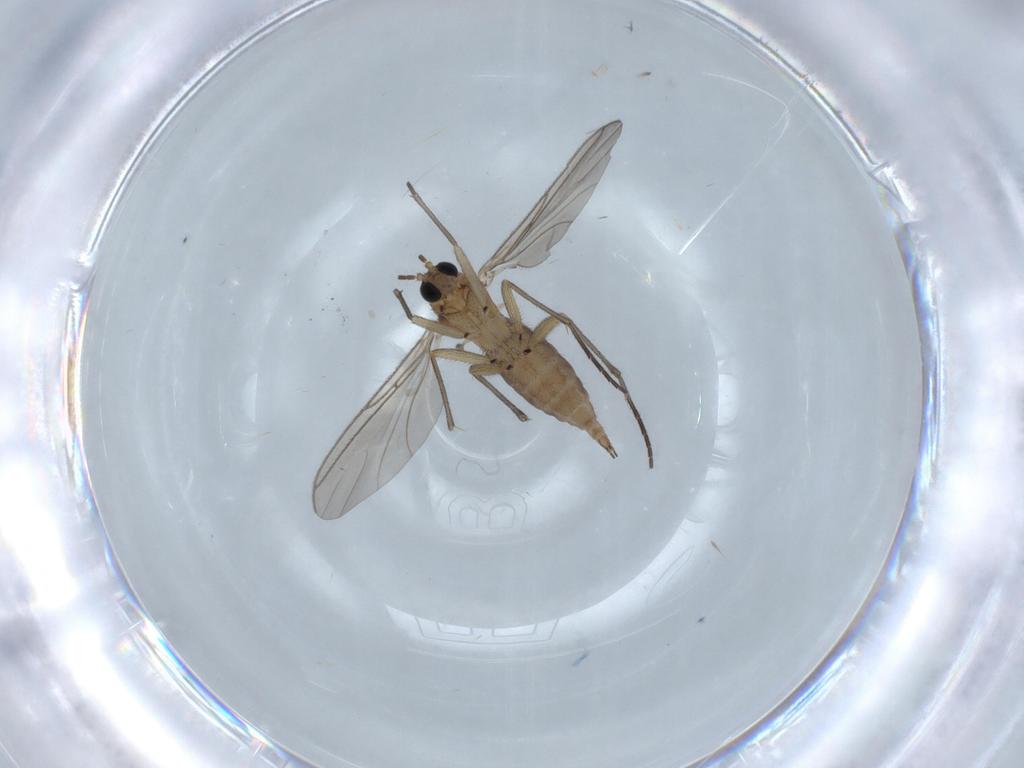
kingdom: Animalia
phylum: Arthropoda
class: Insecta
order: Diptera
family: Sciaridae
